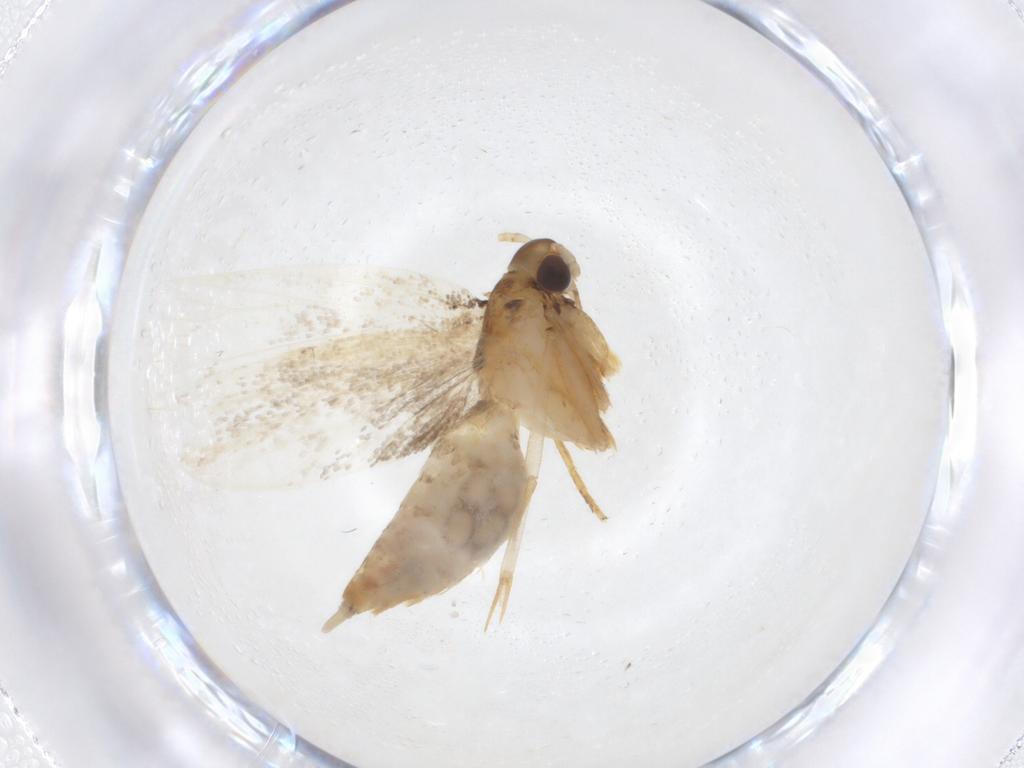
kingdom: Animalia
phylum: Arthropoda
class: Insecta
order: Lepidoptera
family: Lecithoceridae
